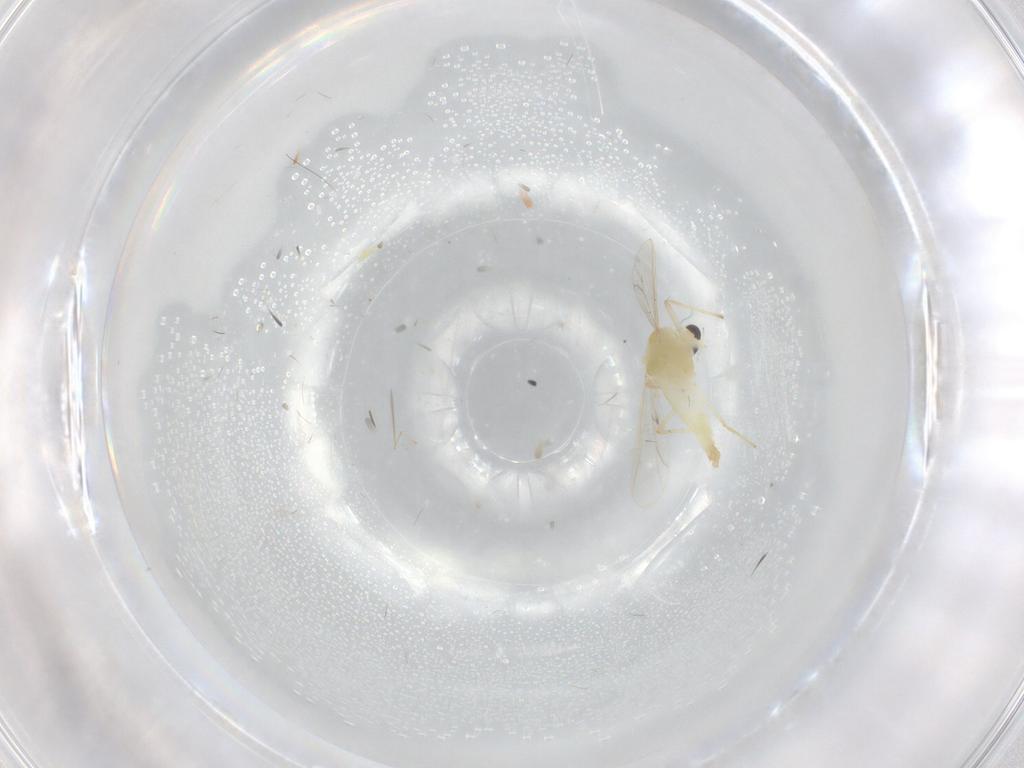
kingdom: Animalia
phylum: Arthropoda
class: Insecta
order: Diptera
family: Chironomidae
